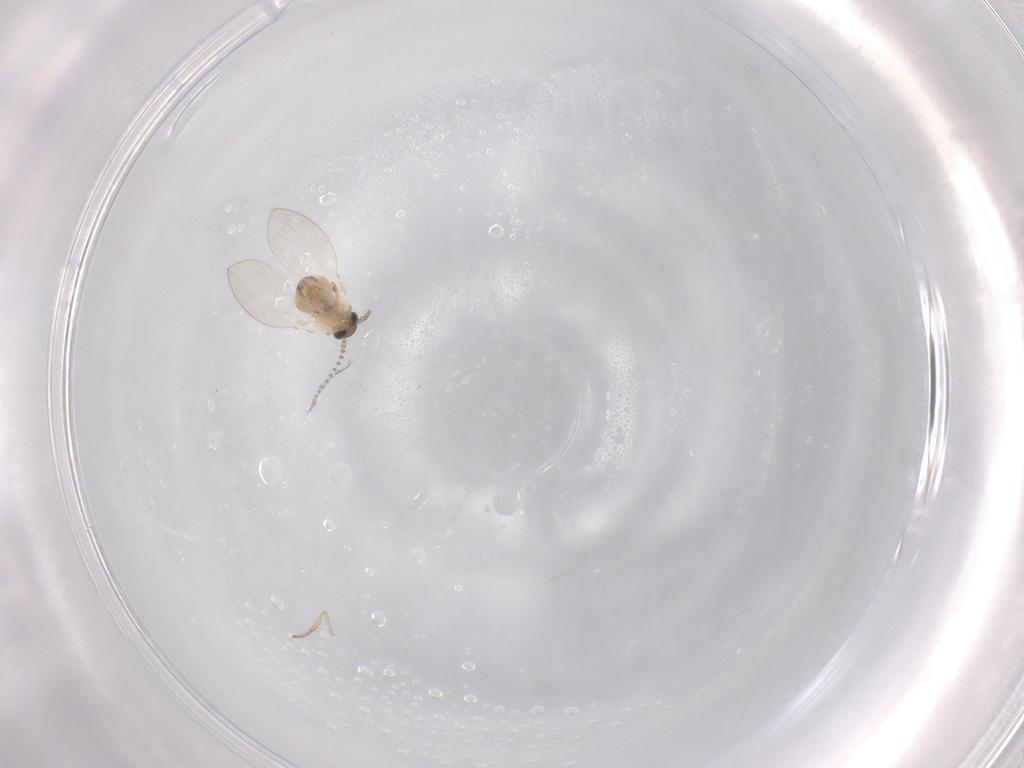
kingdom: Animalia
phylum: Arthropoda
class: Insecta
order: Diptera
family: Psychodidae
